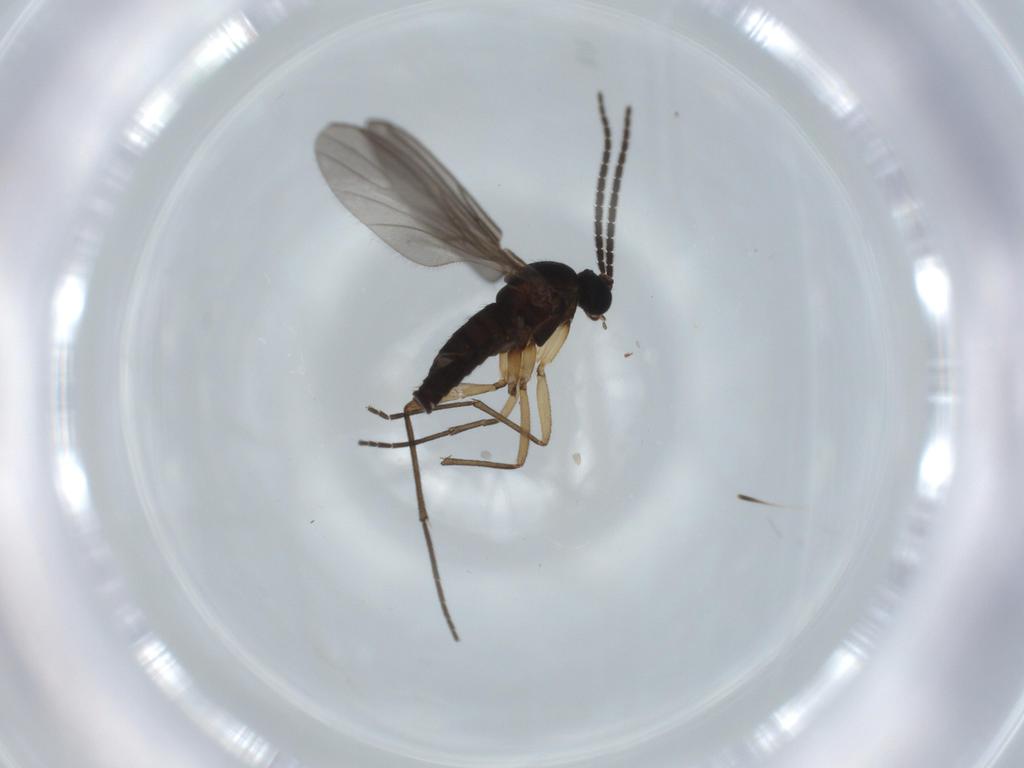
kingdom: Animalia
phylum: Arthropoda
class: Insecta
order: Diptera
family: Sciaridae
